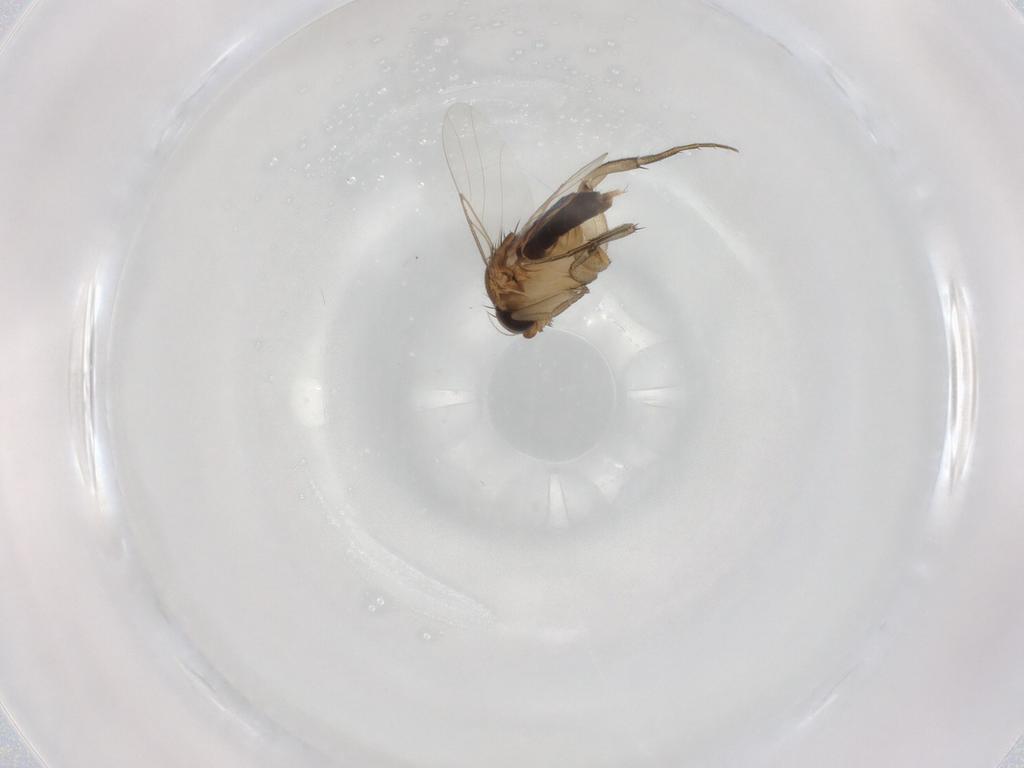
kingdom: Animalia
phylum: Arthropoda
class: Insecta
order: Diptera
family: Phoridae
